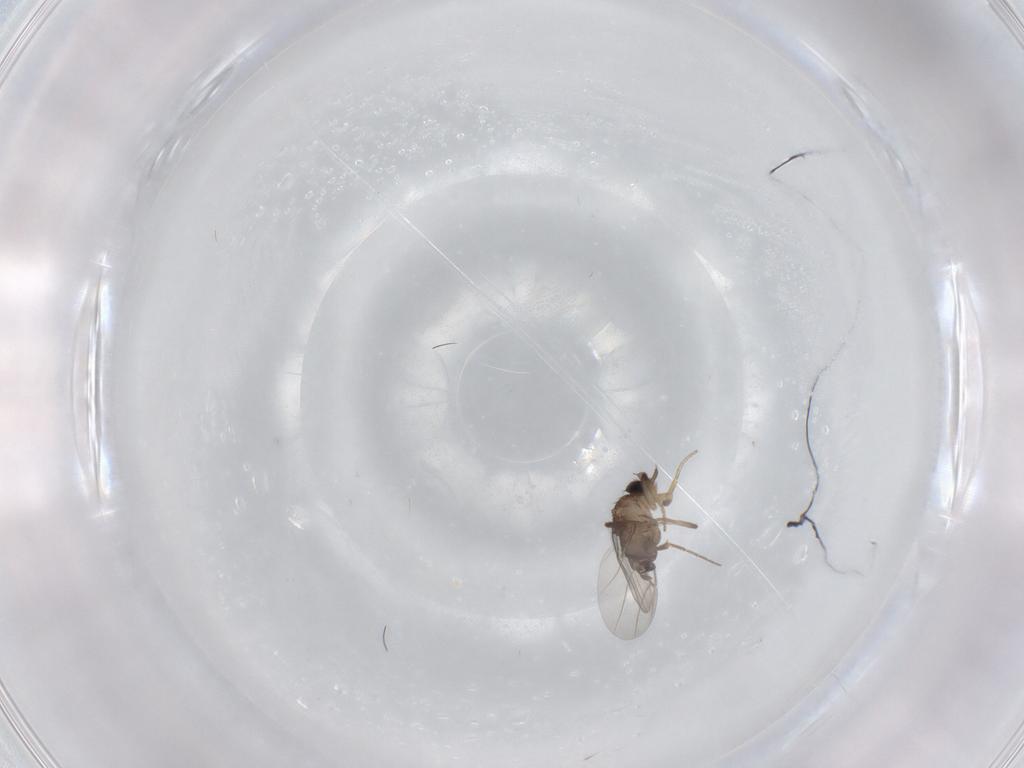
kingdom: Animalia
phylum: Arthropoda
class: Insecta
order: Diptera
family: Phoridae
